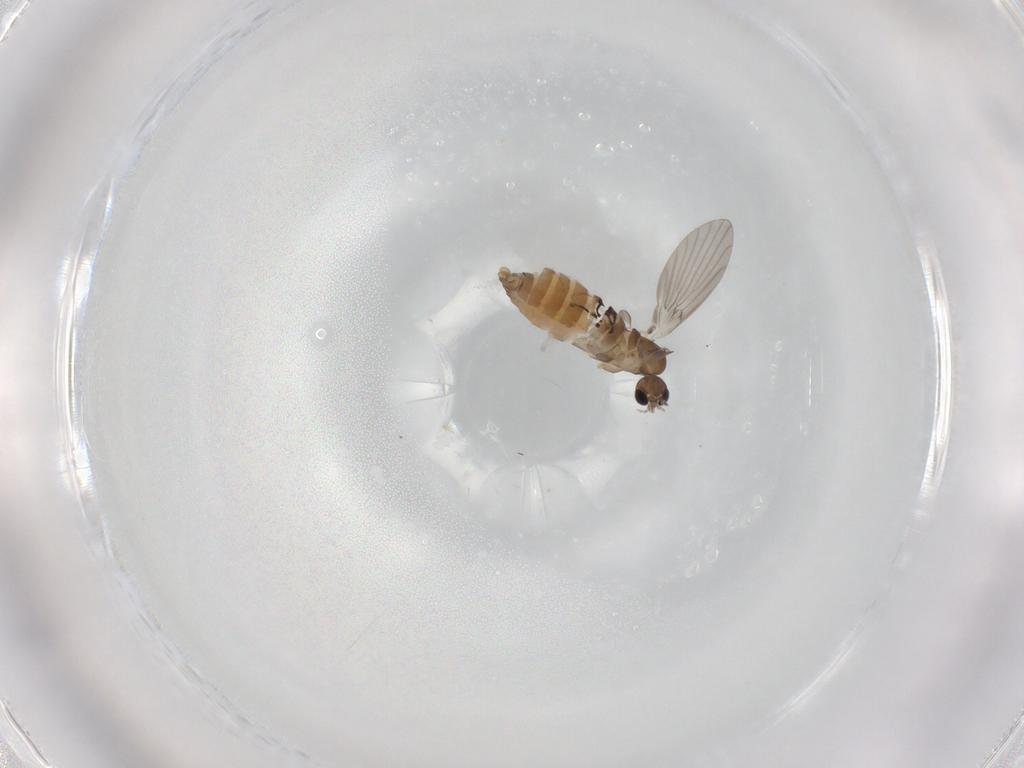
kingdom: Animalia
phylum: Arthropoda
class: Insecta
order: Diptera
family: Limoniidae
